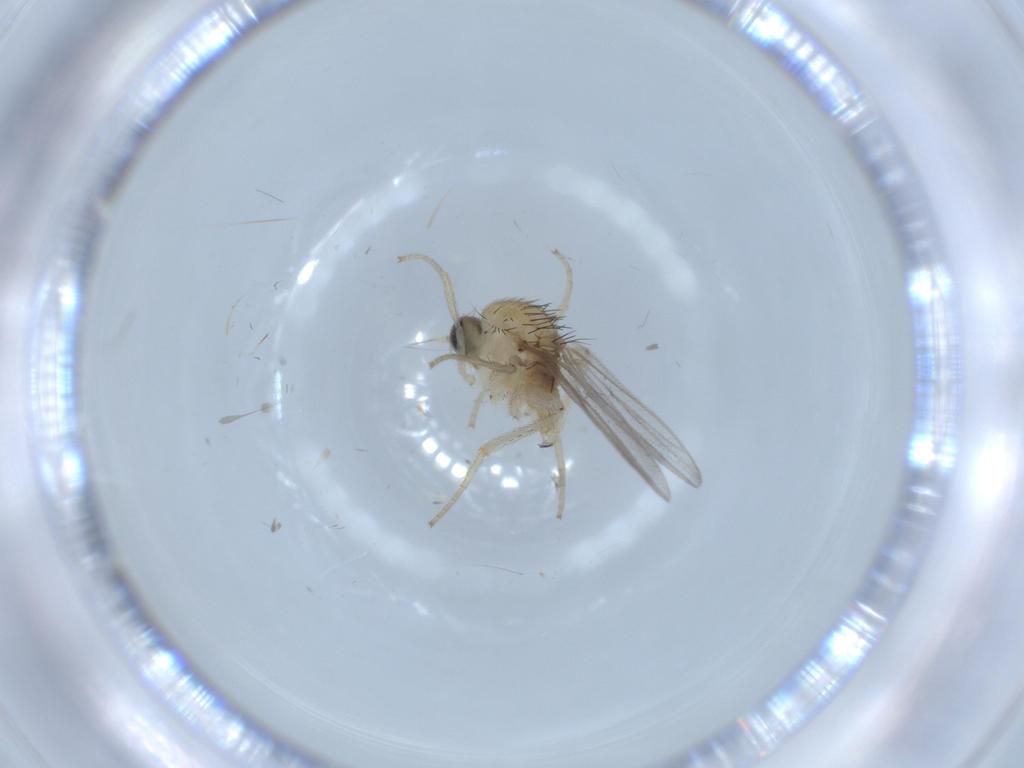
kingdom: Animalia
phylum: Arthropoda
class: Insecta
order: Diptera
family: Hybotidae
